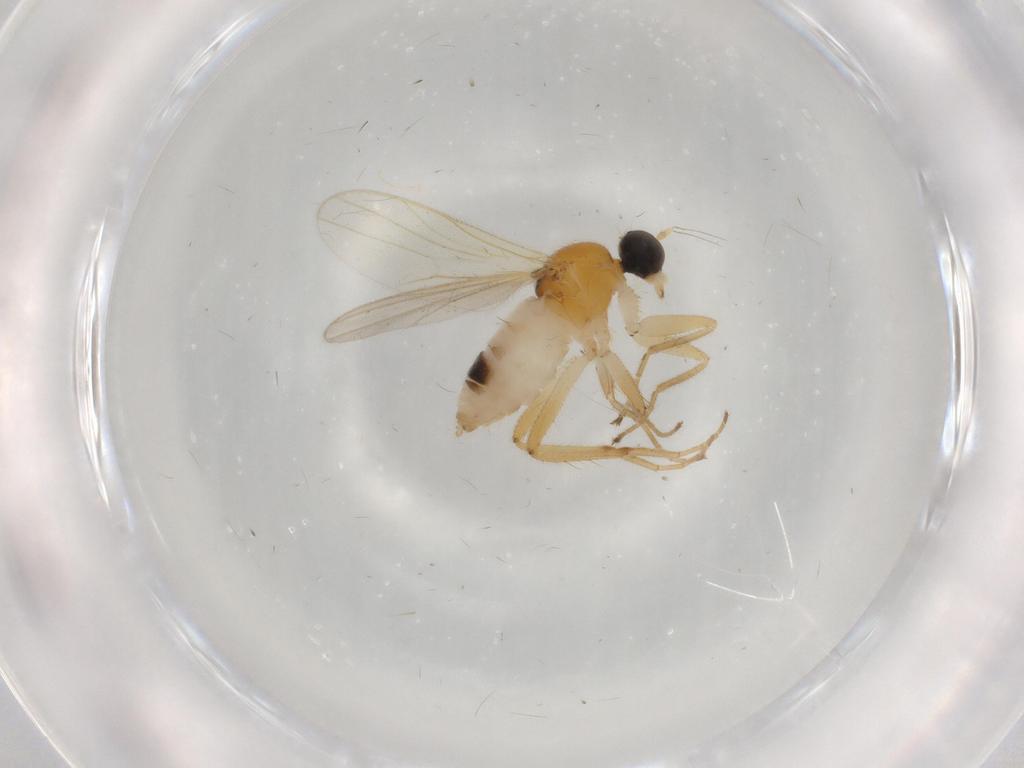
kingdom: Animalia
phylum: Arthropoda
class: Insecta
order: Diptera
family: Hybotidae
